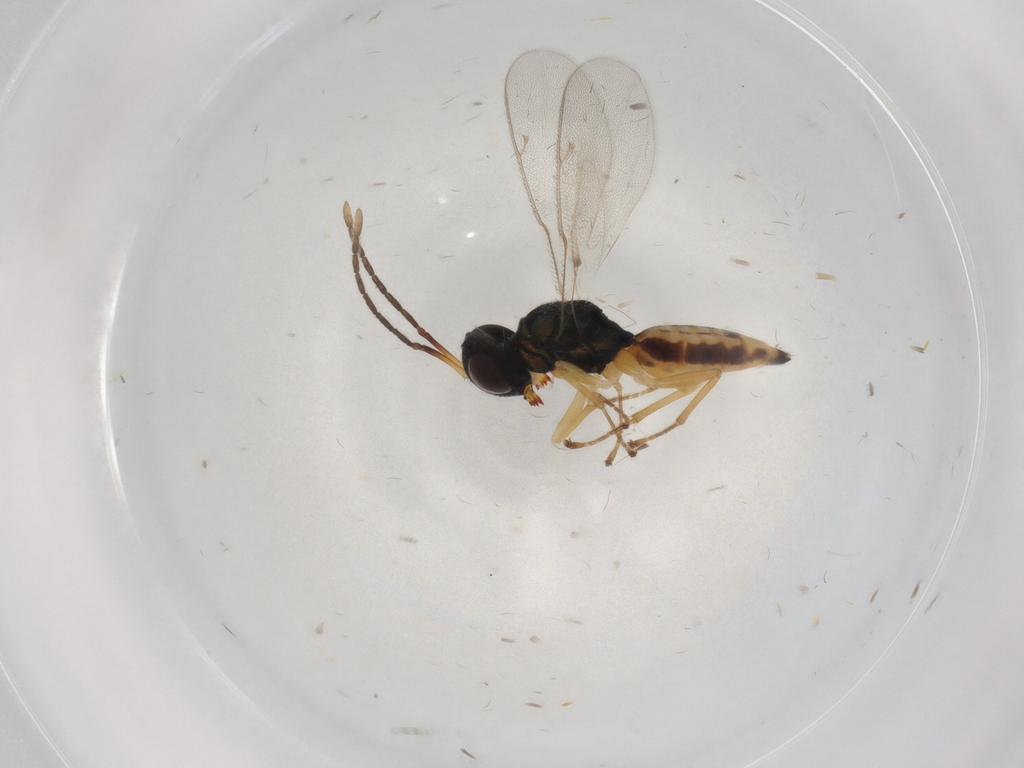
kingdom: Animalia
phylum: Arthropoda
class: Insecta
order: Hymenoptera
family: Pteromalidae
